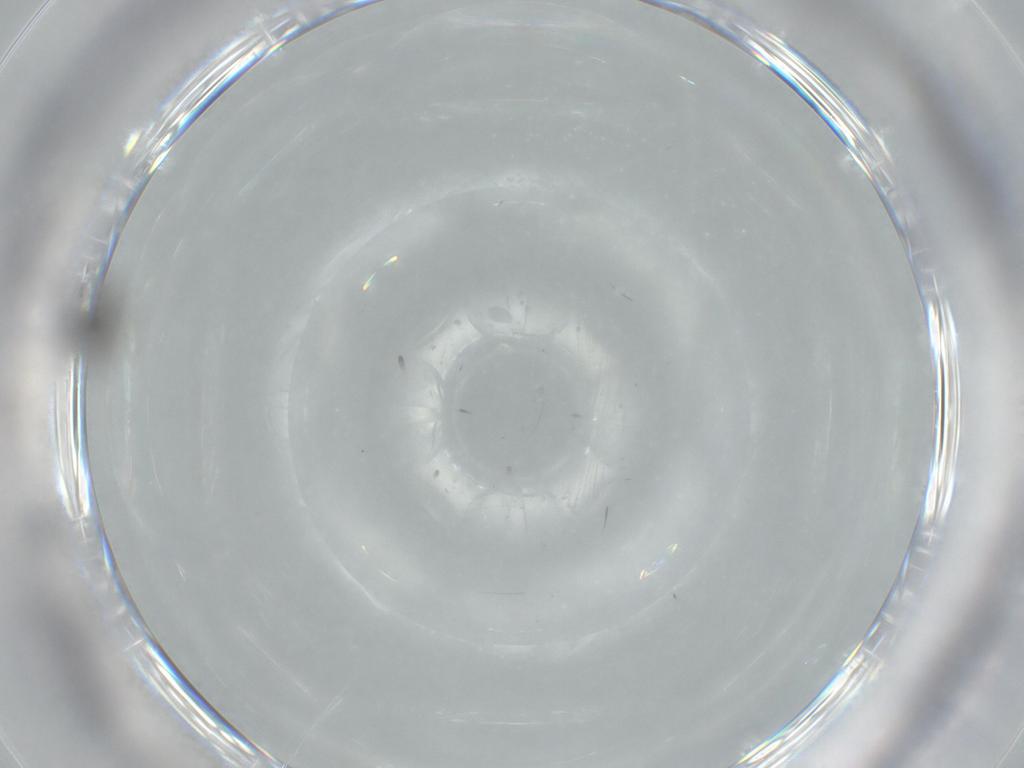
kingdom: Animalia
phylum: Arthropoda
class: Insecta
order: Diptera
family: Sphaeroceridae
